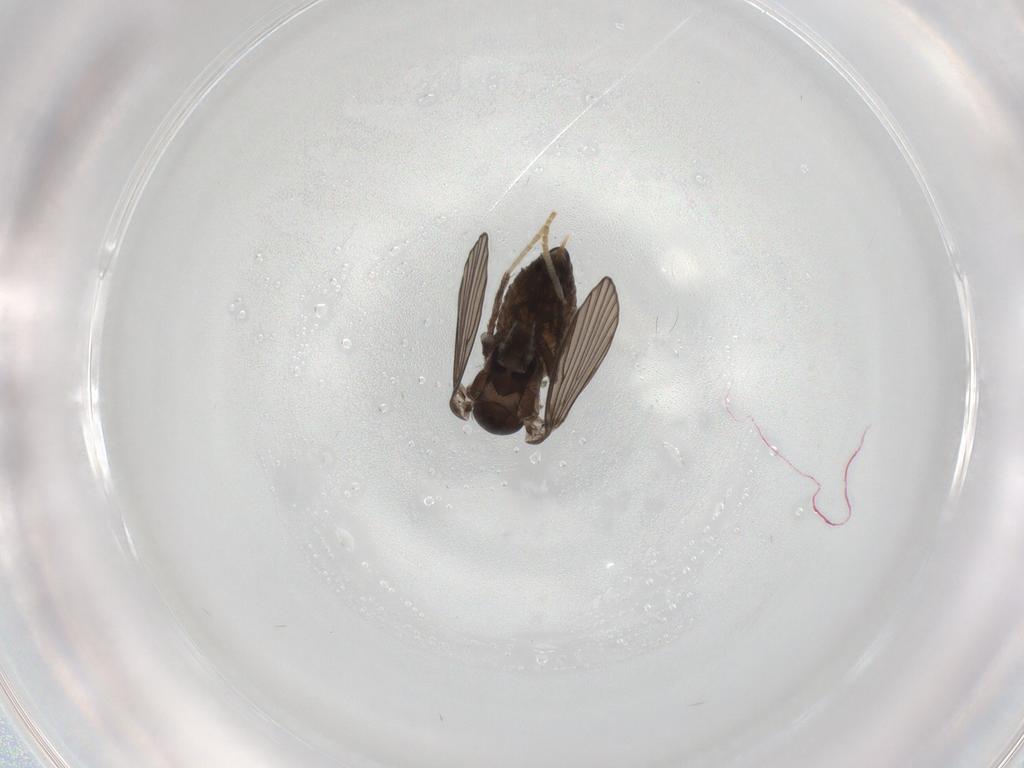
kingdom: Animalia
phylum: Arthropoda
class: Insecta
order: Diptera
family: Psychodidae
